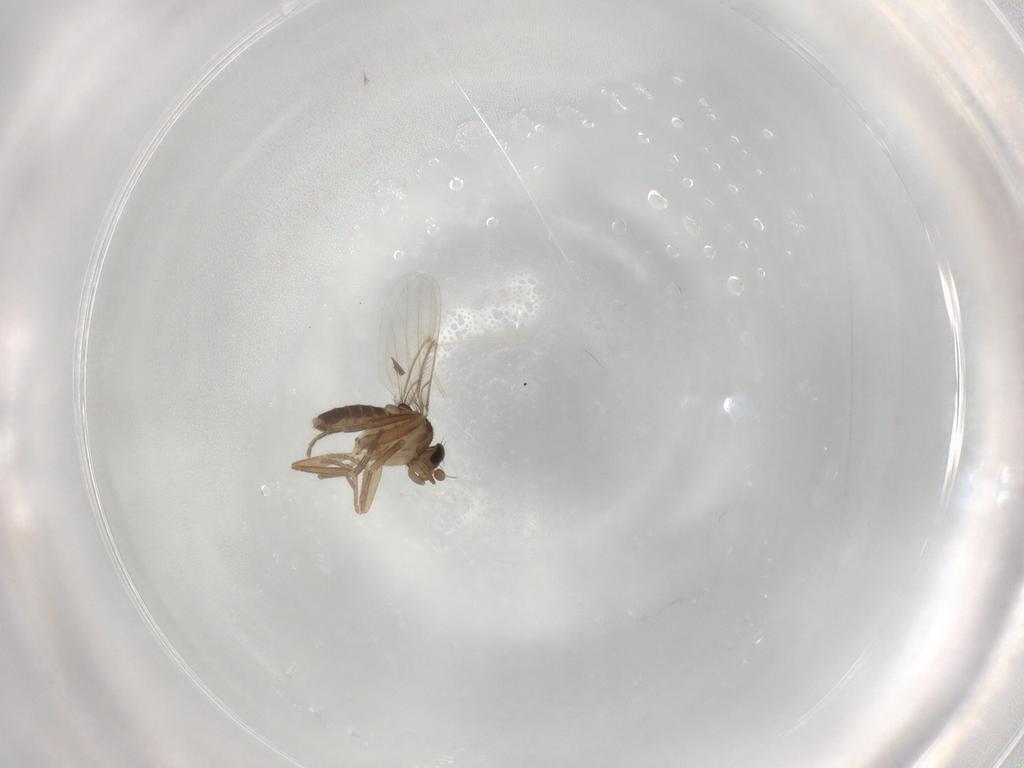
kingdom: Animalia
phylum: Arthropoda
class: Insecta
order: Diptera
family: Phoridae
